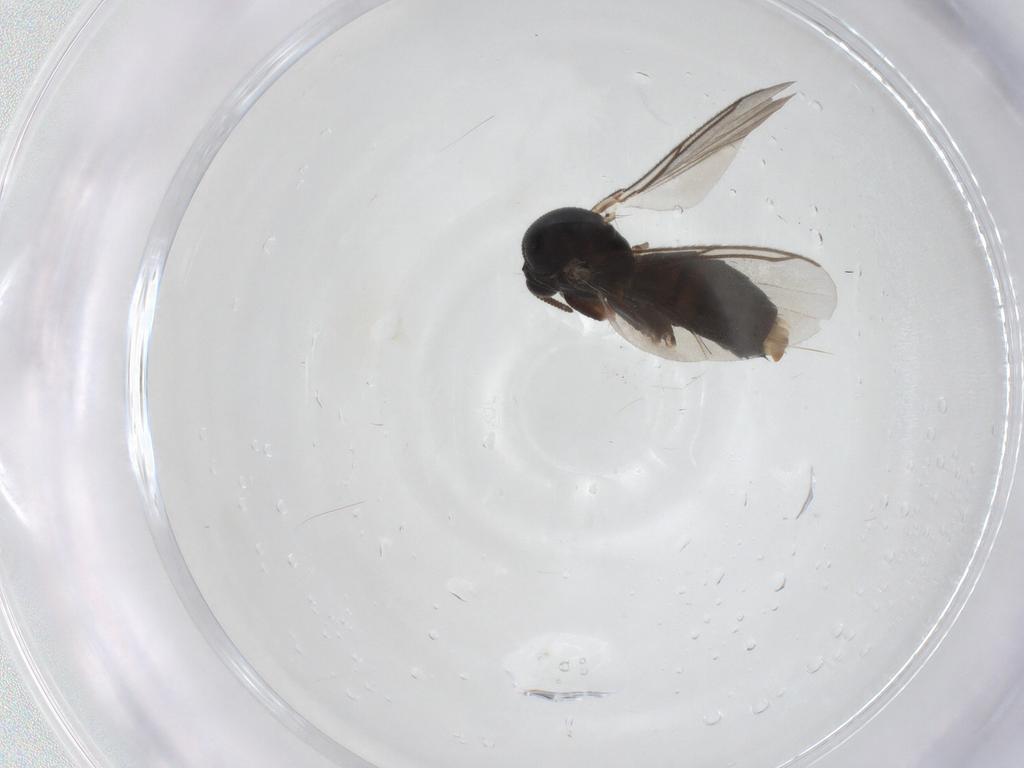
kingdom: Animalia
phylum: Arthropoda
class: Insecta
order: Diptera
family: Mycetophilidae
